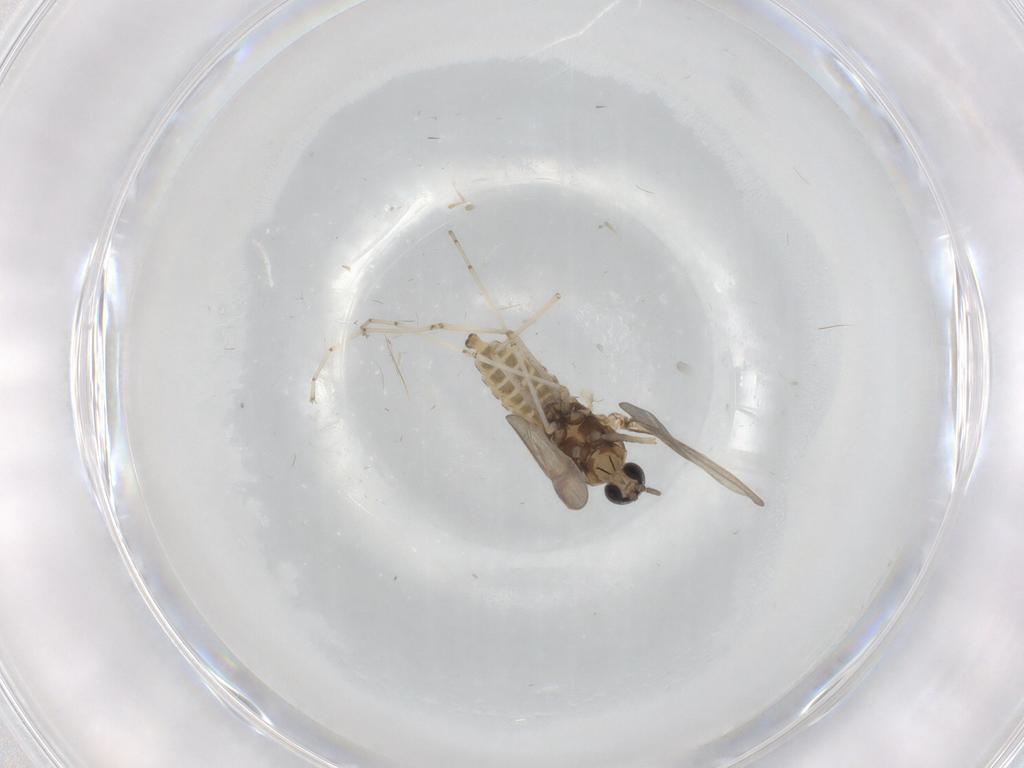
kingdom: Animalia
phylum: Arthropoda
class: Insecta
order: Diptera
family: Cecidomyiidae
